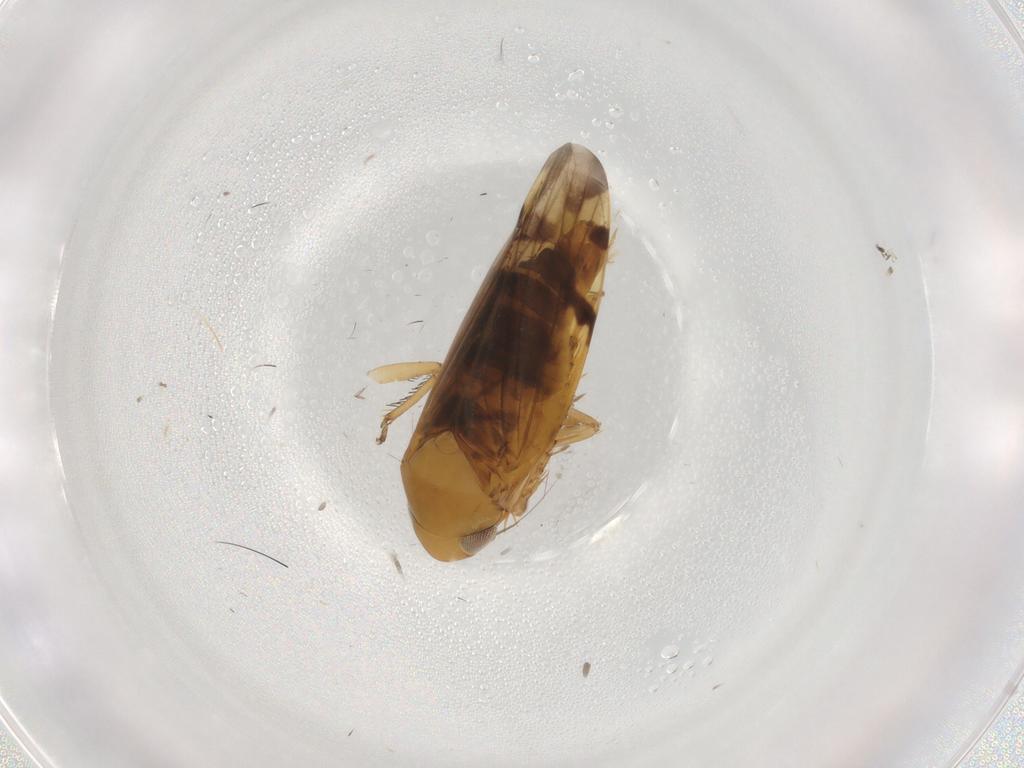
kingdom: Animalia
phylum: Arthropoda
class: Insecta
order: Hemiptera
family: Cicadellidae
